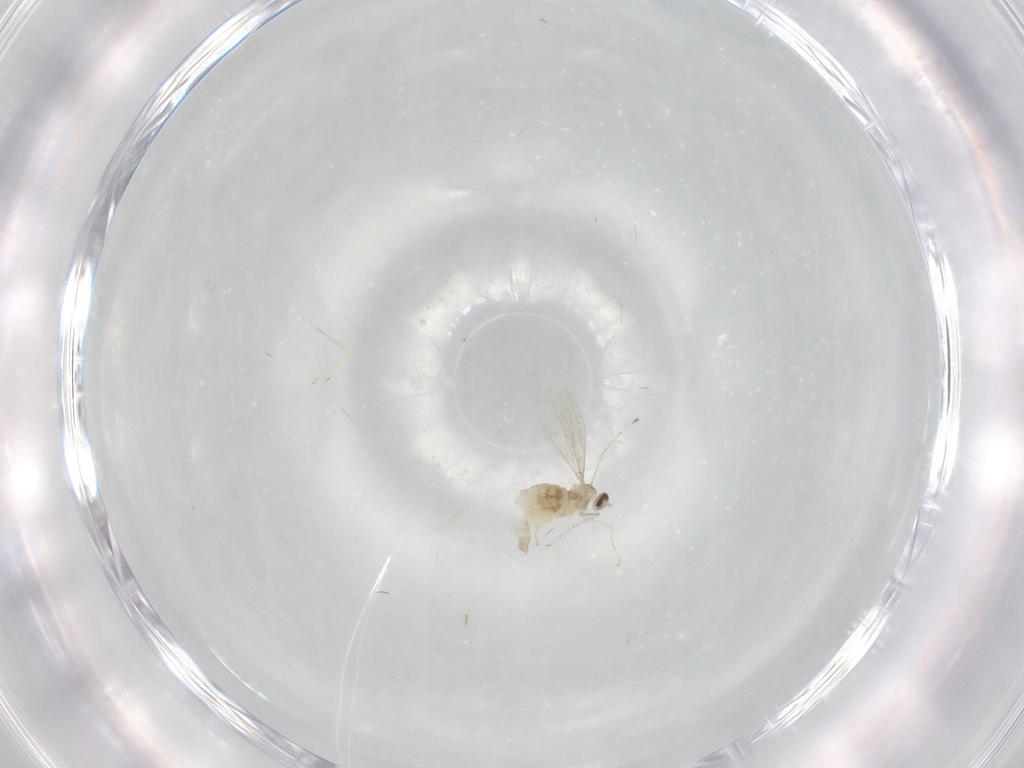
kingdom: Animalia
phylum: Arthropoda
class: Insecta
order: Diptera
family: Cecidomyiidae
